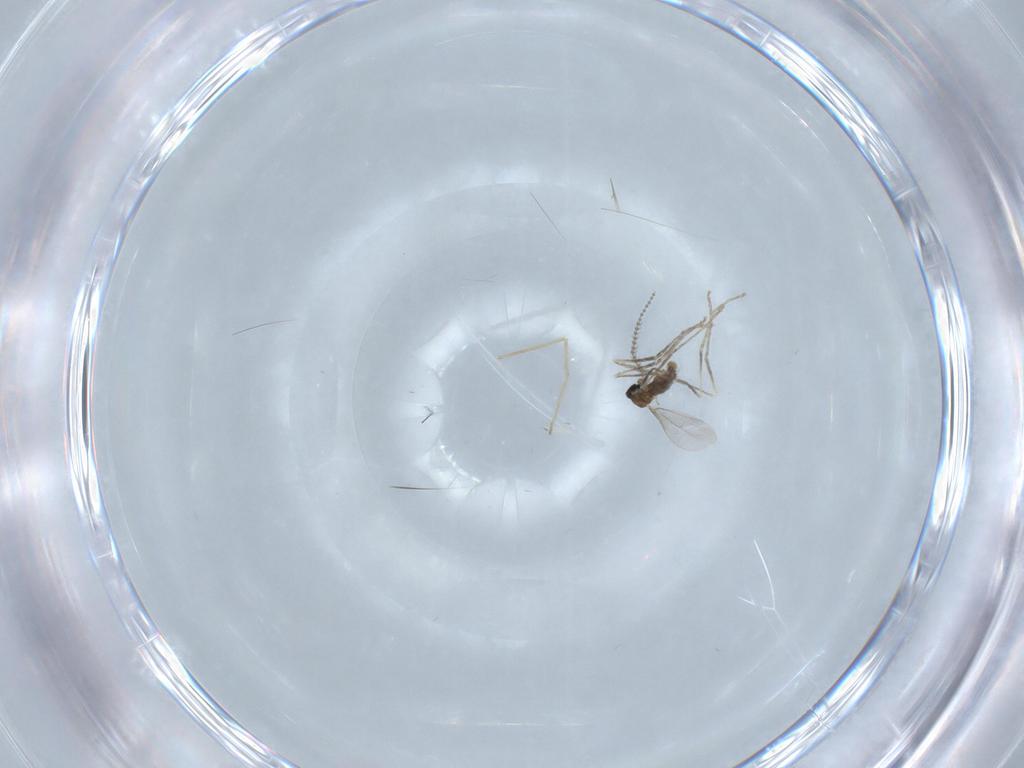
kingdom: Animalia
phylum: Arthropoda
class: Insecta
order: Diptera
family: Cecidomyiidae
